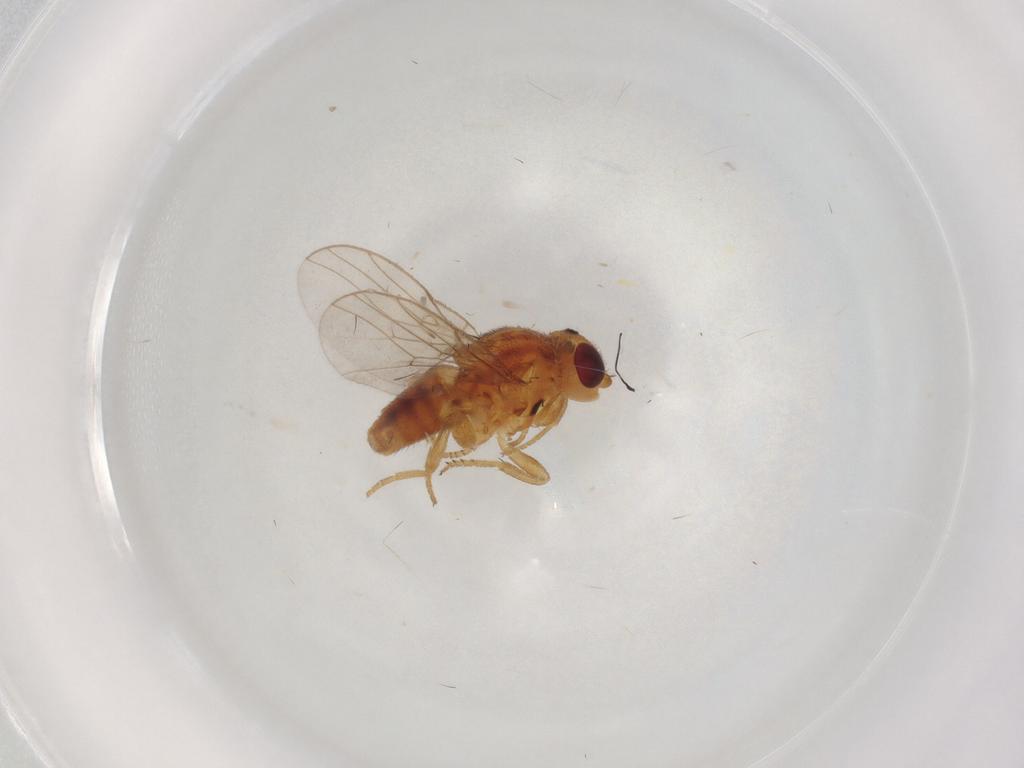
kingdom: Animalia
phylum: Arthropoda
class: Insecta
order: Diptera
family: Chloropidae
